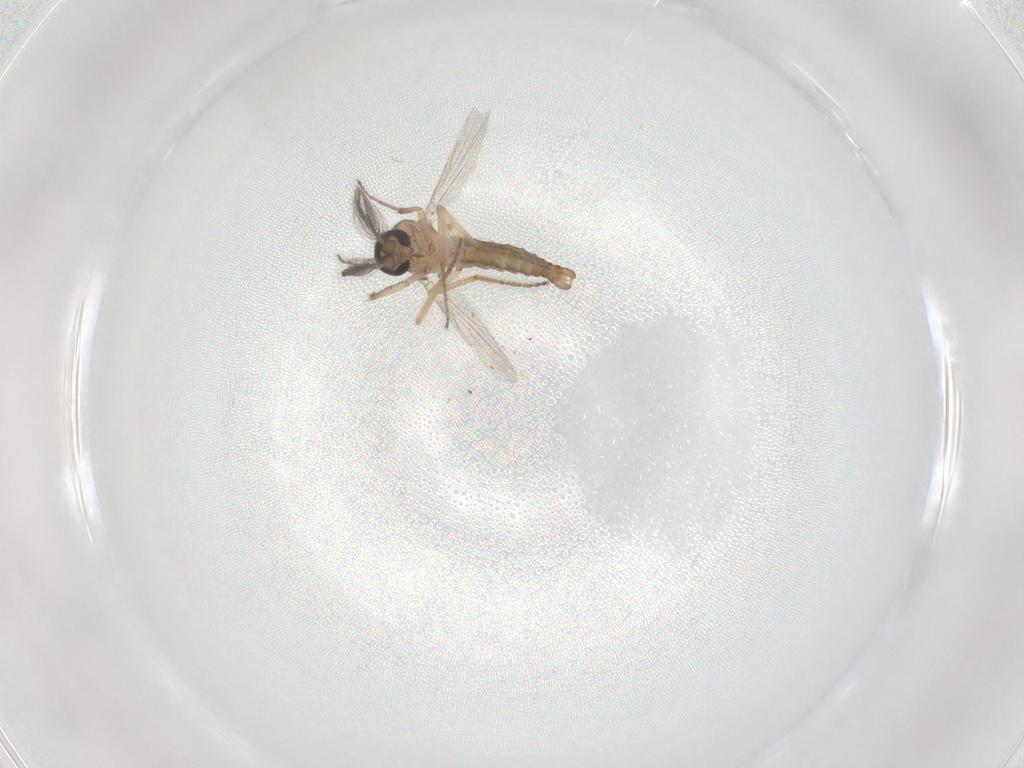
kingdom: Animalia
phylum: Arthropoda
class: Insecta
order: Diptera
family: Ceratopogonidae
